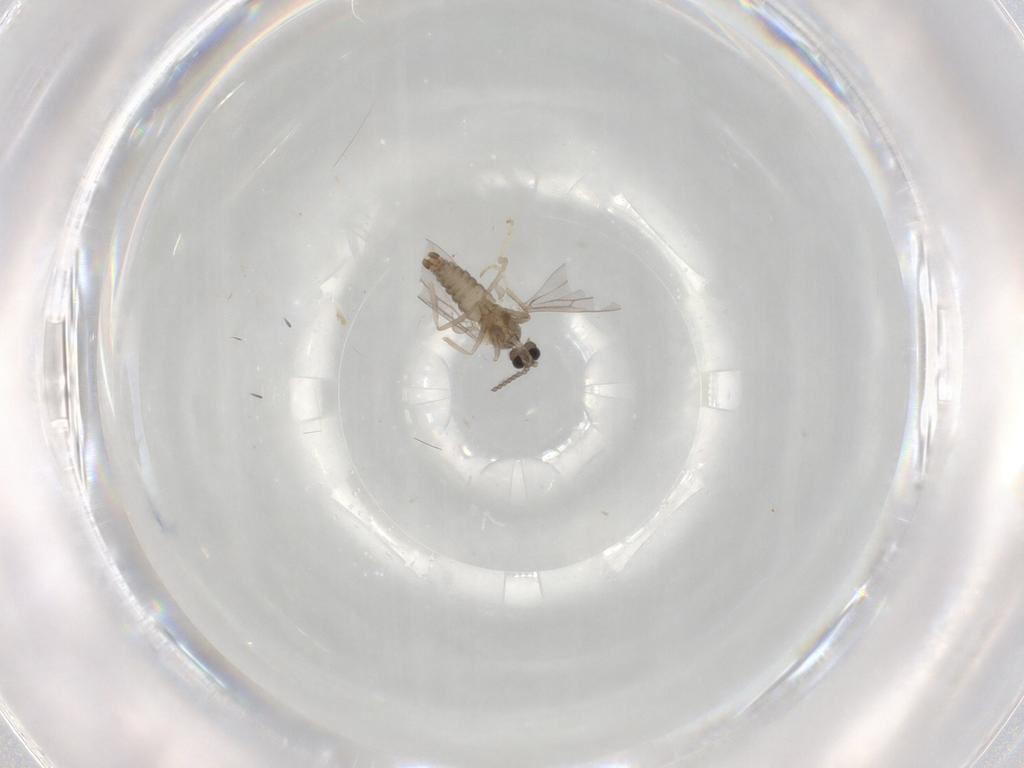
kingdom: Animalia
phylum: Arthropoda
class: Insecta
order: Diptera
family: Cecidomyiidae
